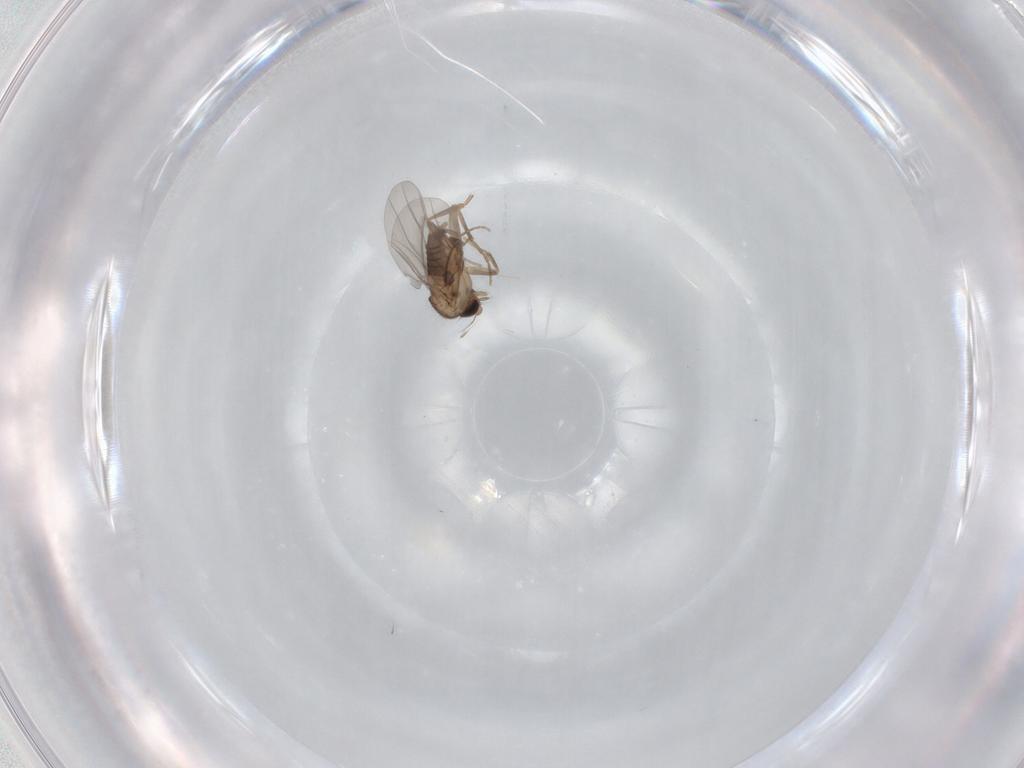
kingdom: Animalia
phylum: Arthropoda
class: Insecta
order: Diptera
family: Cecidomyiidae
